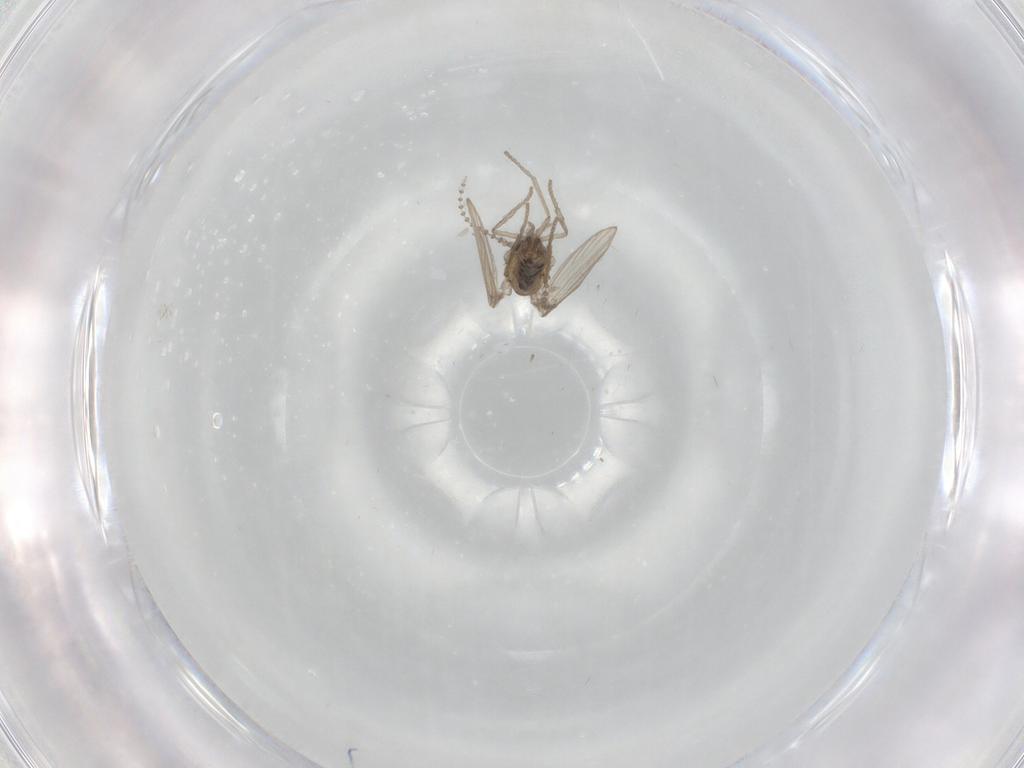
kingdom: Animalia
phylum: Arthropoda
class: Insecta
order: Diptera
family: Psychodidae
